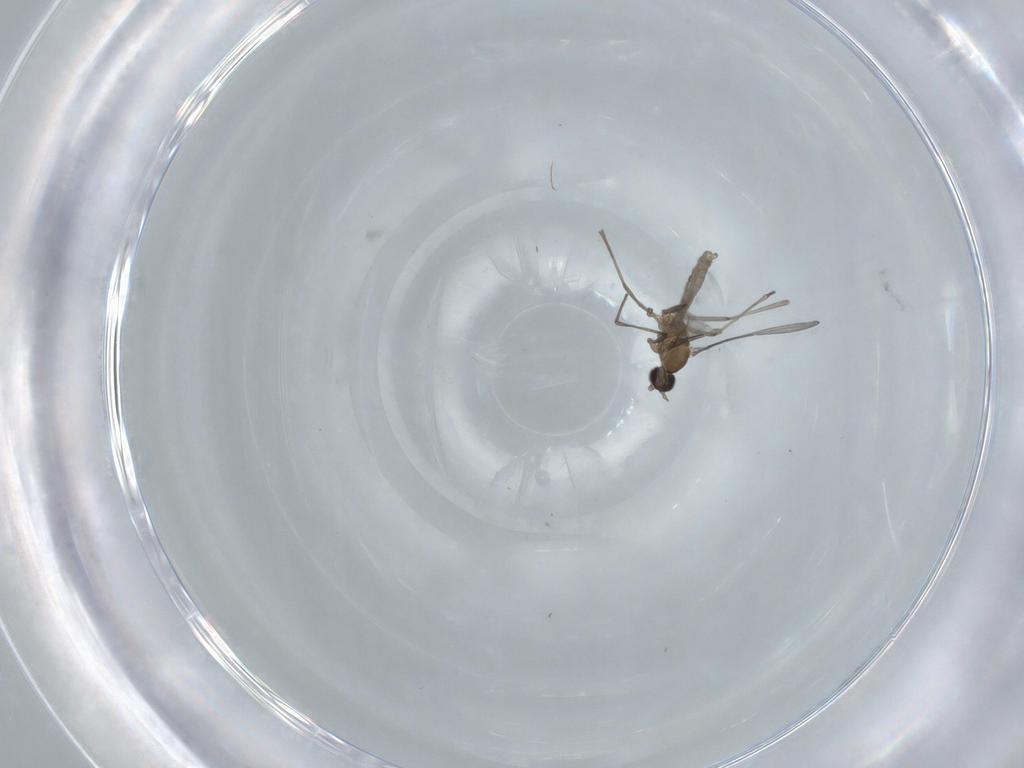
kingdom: Animalia
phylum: Arthropoda
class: Insecta
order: Diptera
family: Cecidomyiidae
